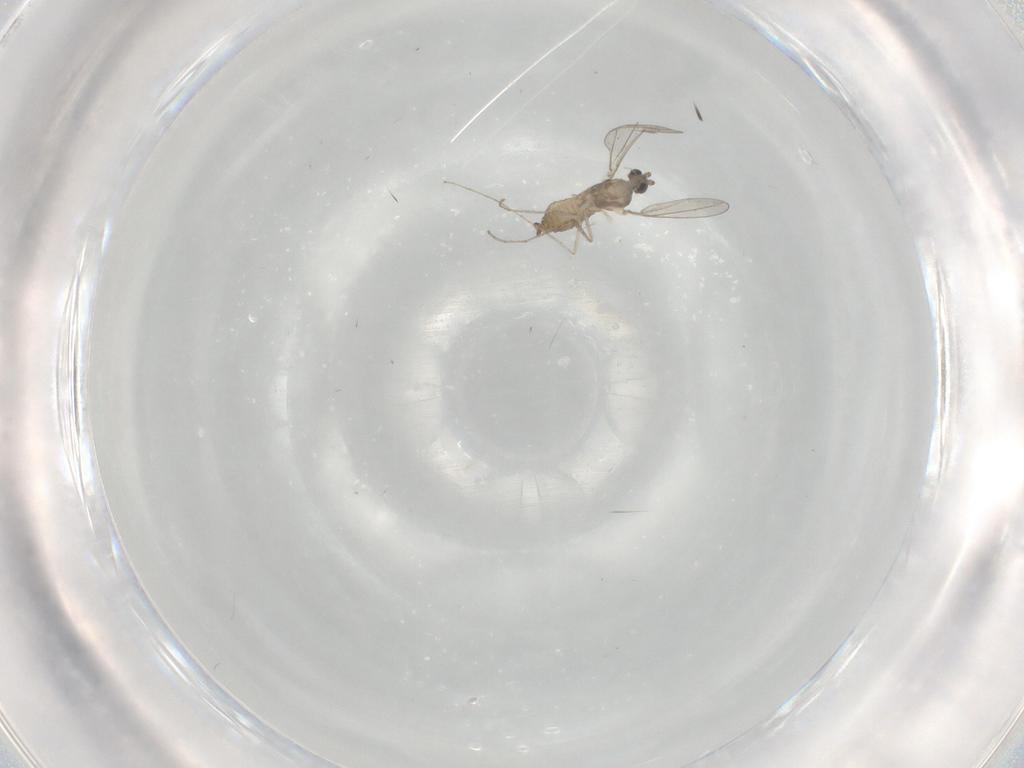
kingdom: Animalia
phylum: Arthropoda
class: Insecta
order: Diptera
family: Cecidomyiidae
